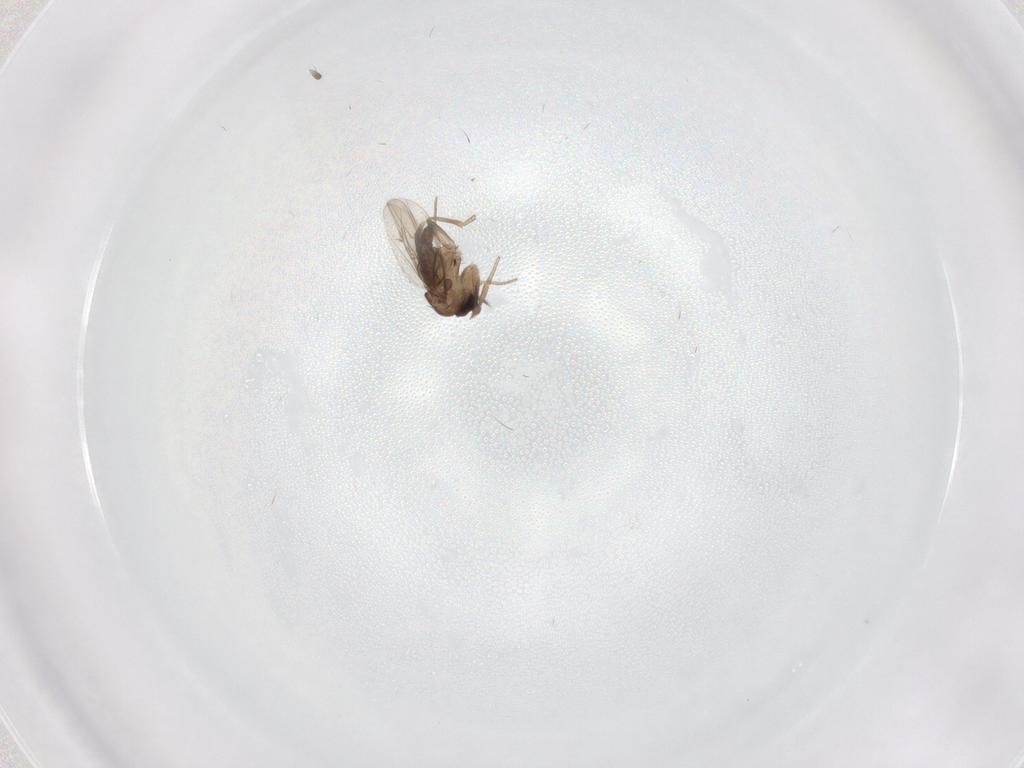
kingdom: Animalia
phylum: Arthropoda
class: Insecta
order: Diptera
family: Phoridae
